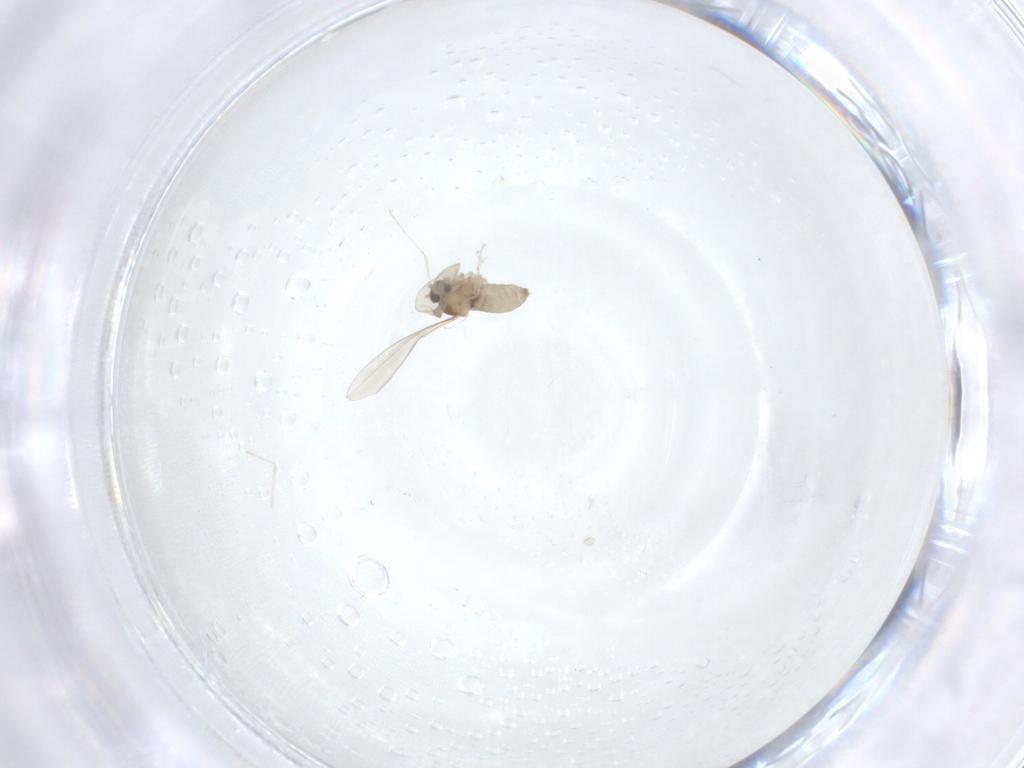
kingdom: Animalia
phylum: Arthropoda
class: Insecta
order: Diptera
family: Cecidomyiidae
